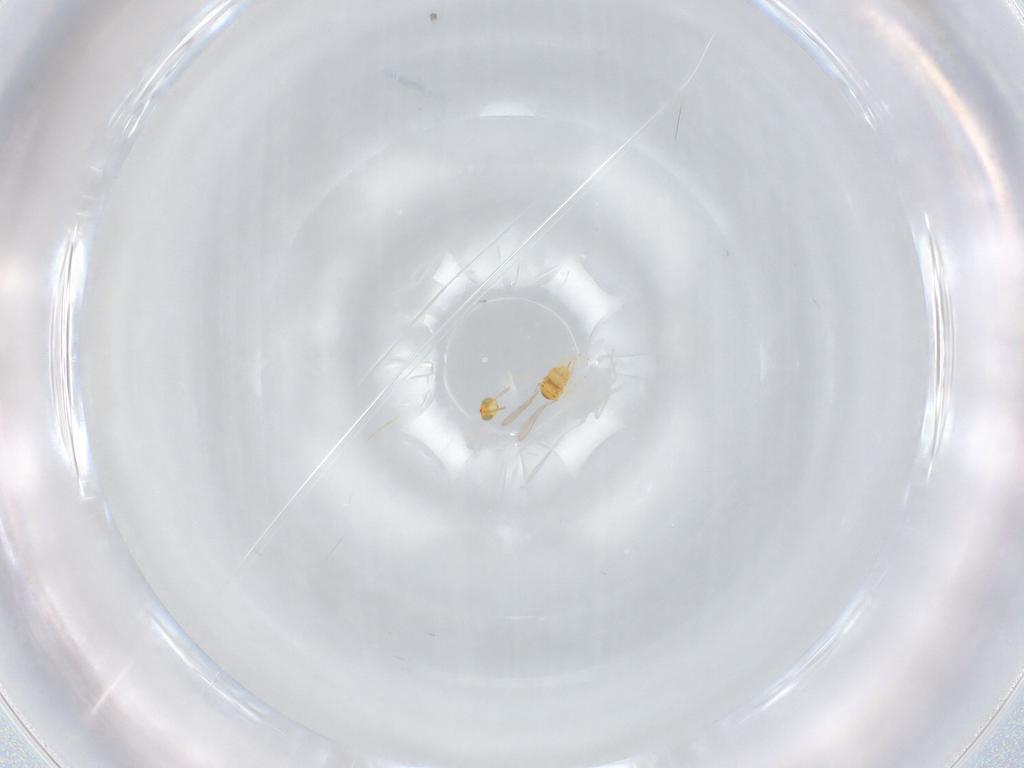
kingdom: Animalia
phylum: Arthropoda
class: Insecta
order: Hymenoptera
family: Aphelinidae
